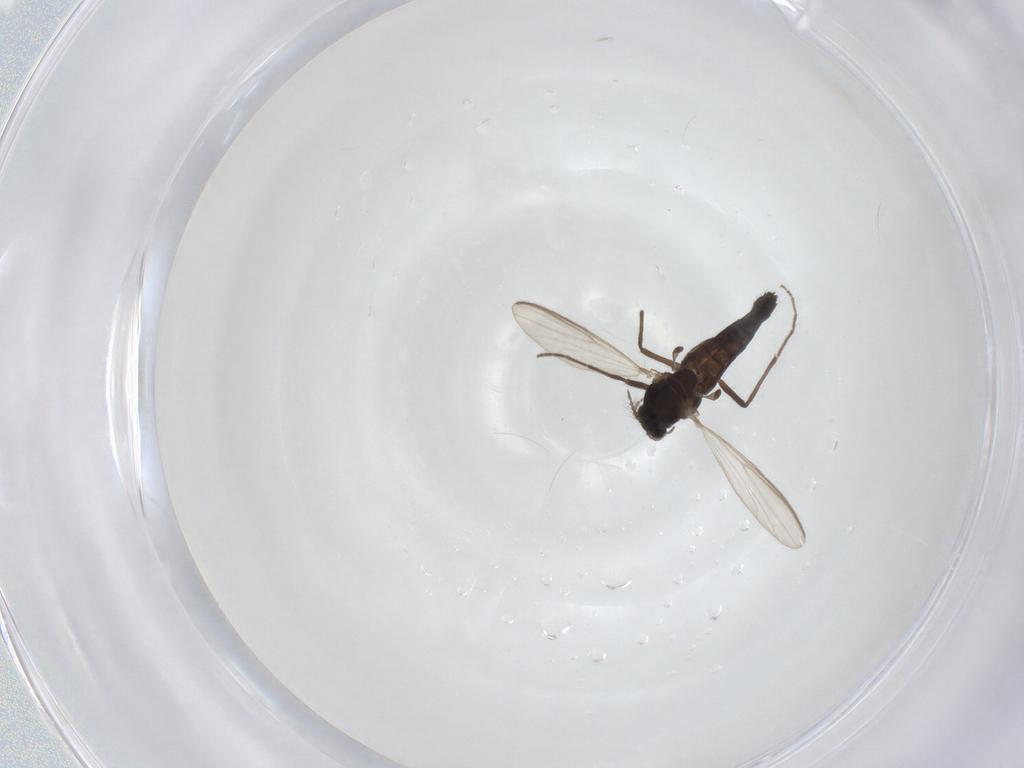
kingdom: Animalia
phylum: Arthropoda
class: Insecta
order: Diptera
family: Chironomidae
